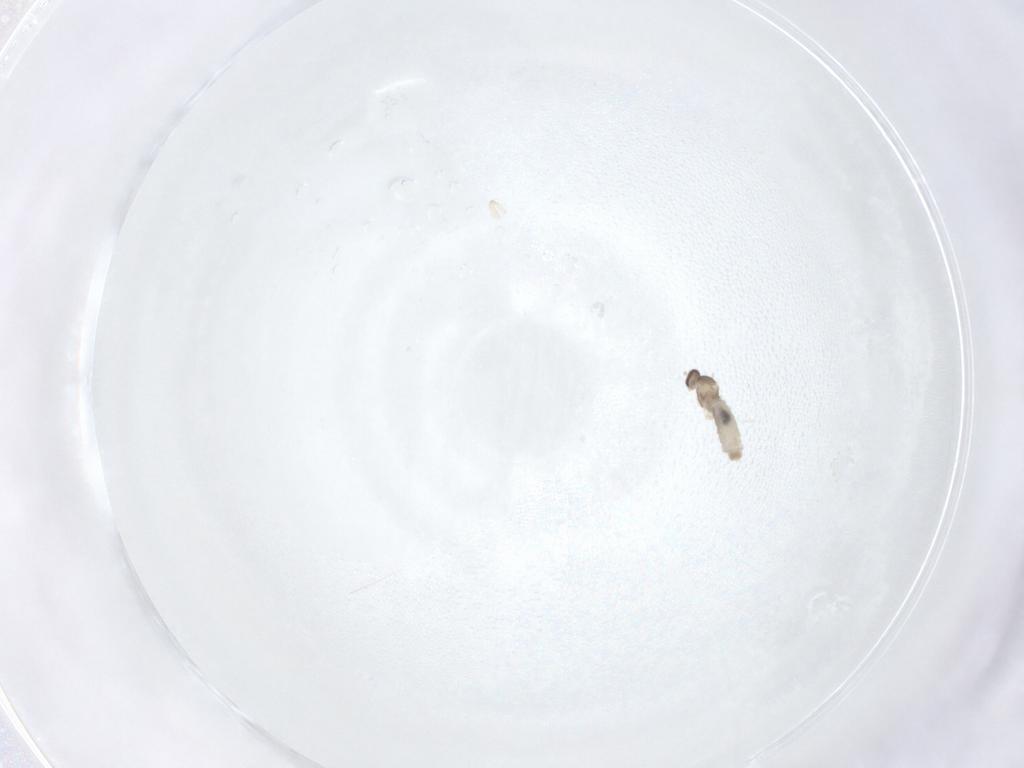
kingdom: Animalia
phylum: Arthropoda
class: Insecta
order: Diptera
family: Cecidomyiidae
